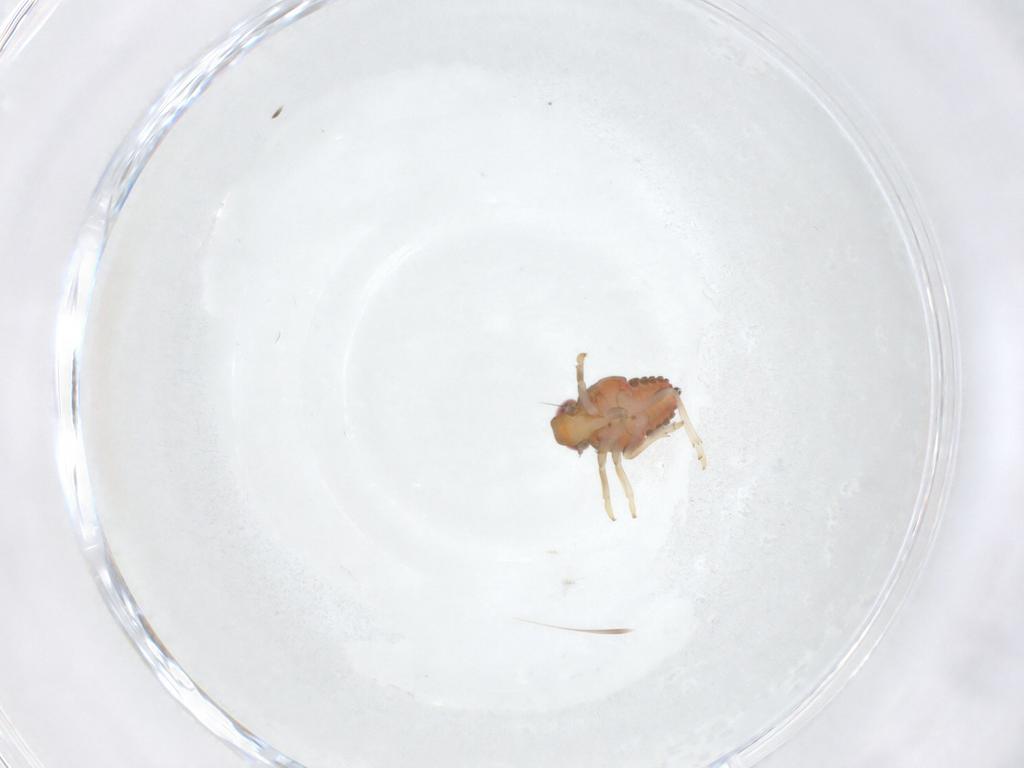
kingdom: Animalia
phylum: Arthropoda
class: Insecta
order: Hemiptera
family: Issidae
